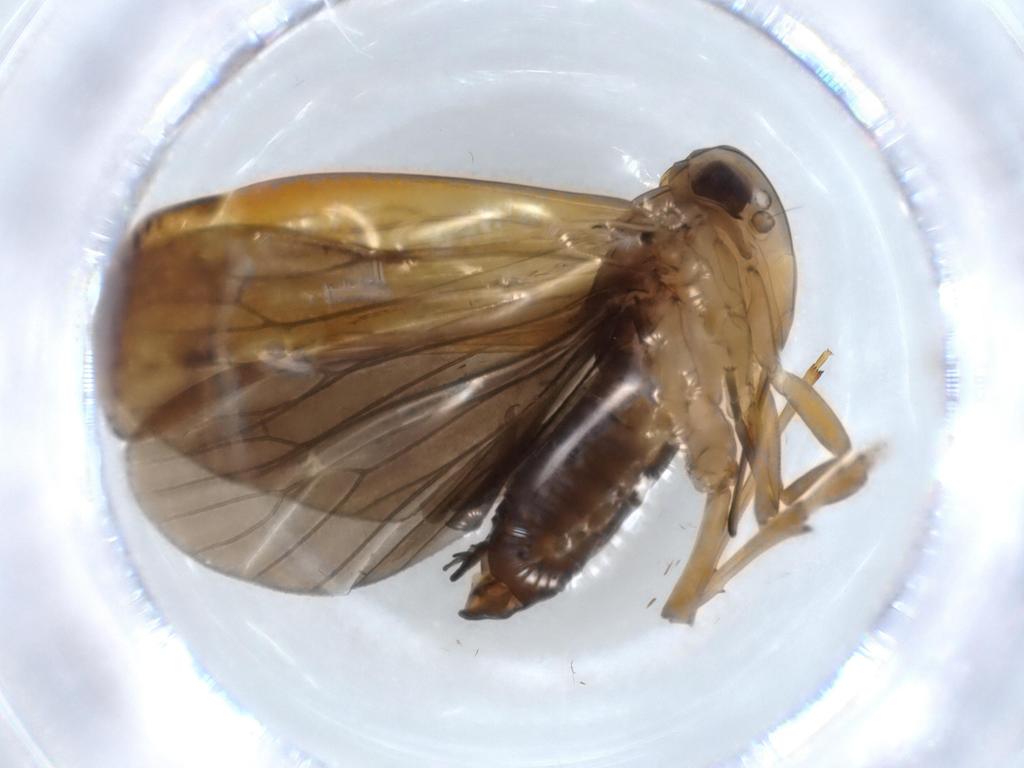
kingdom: Animalia
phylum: Arthropoda
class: Insecta
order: Hemiptera
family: Achilidae
